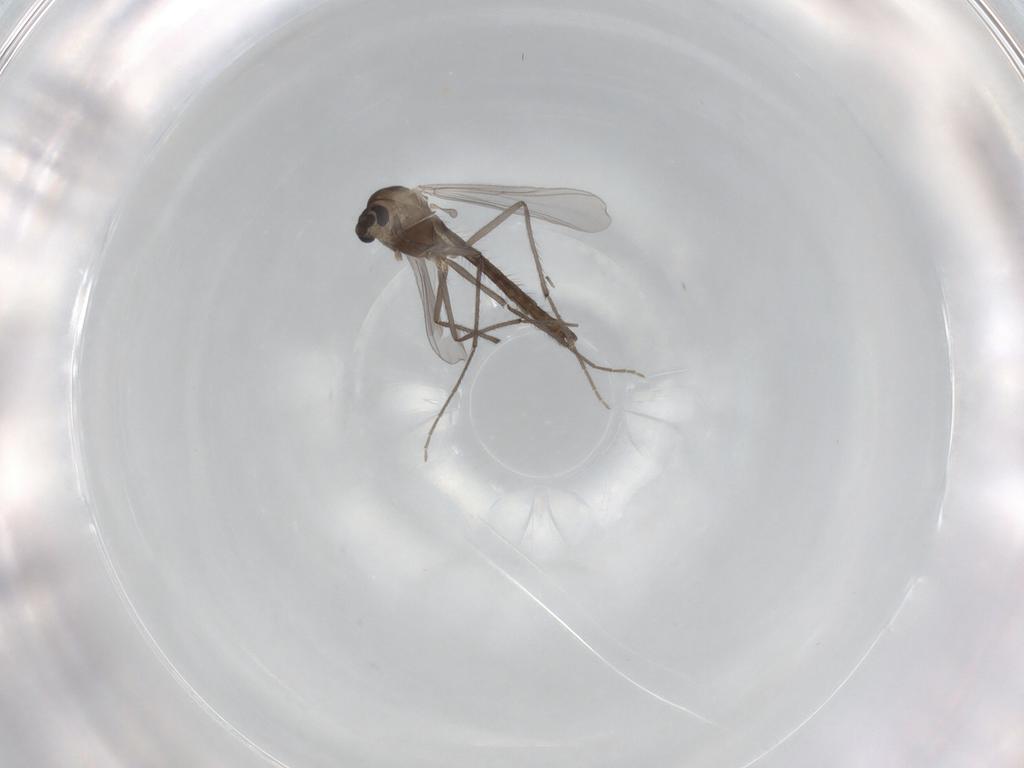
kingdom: Animalia
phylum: Arthropoda
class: Insecta
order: Diptera
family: Chironomidae
